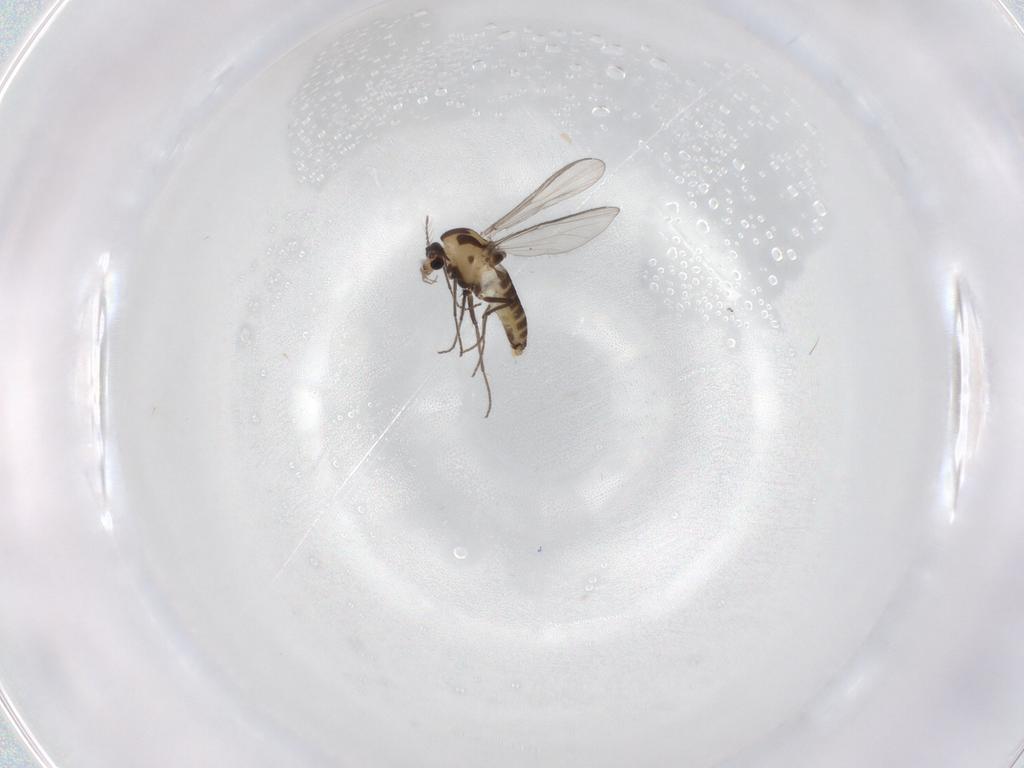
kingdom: Animalia
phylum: Arthropoda
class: Insecta
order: Diptera
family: Chironomidae
